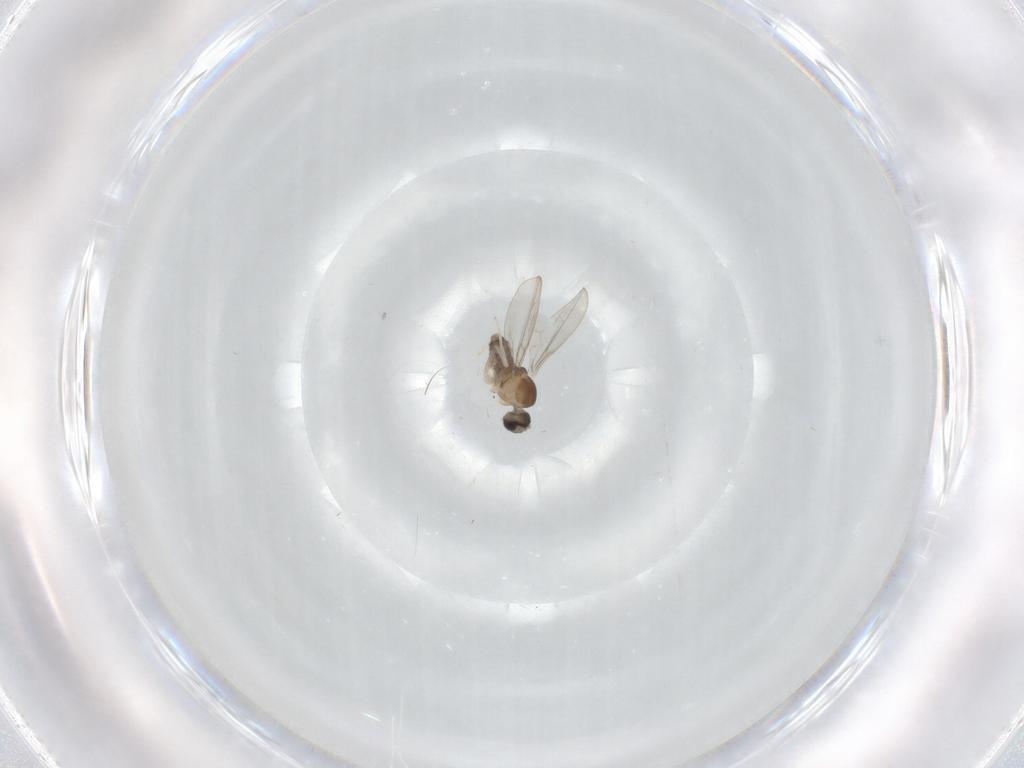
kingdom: Animalia
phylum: Arthropoda
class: Insecta
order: Diptera
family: Cecidomyiidae
